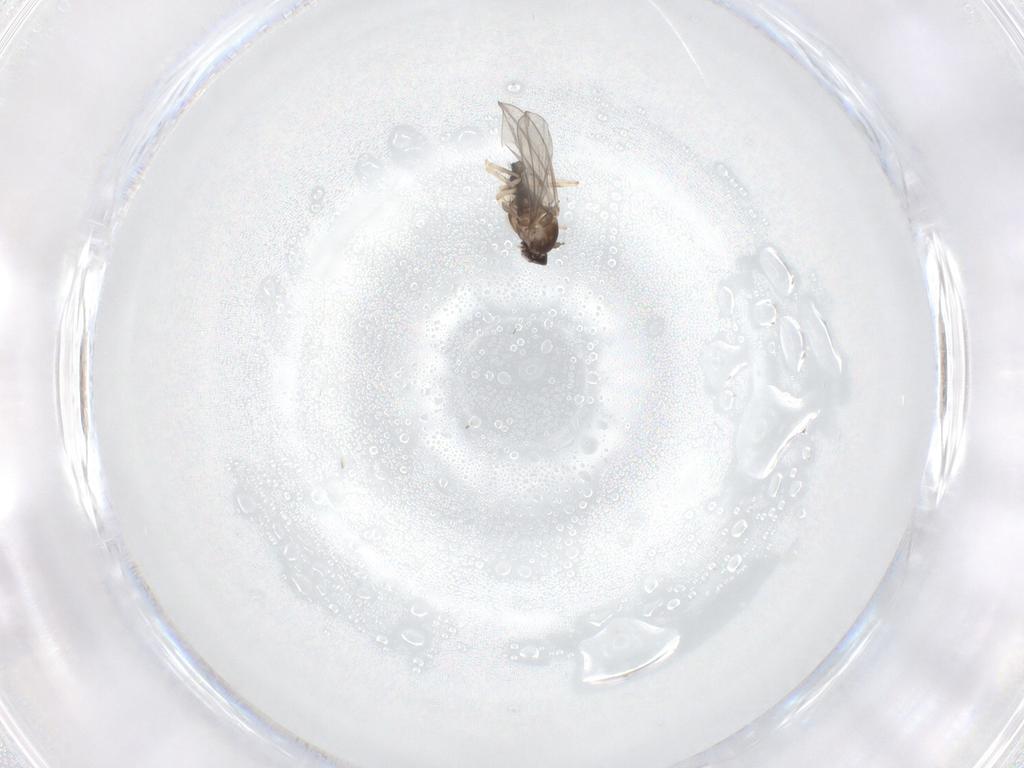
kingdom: Animalia
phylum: Arthropoda
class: Insecta
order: Diptera
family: Cecidomyiidae
